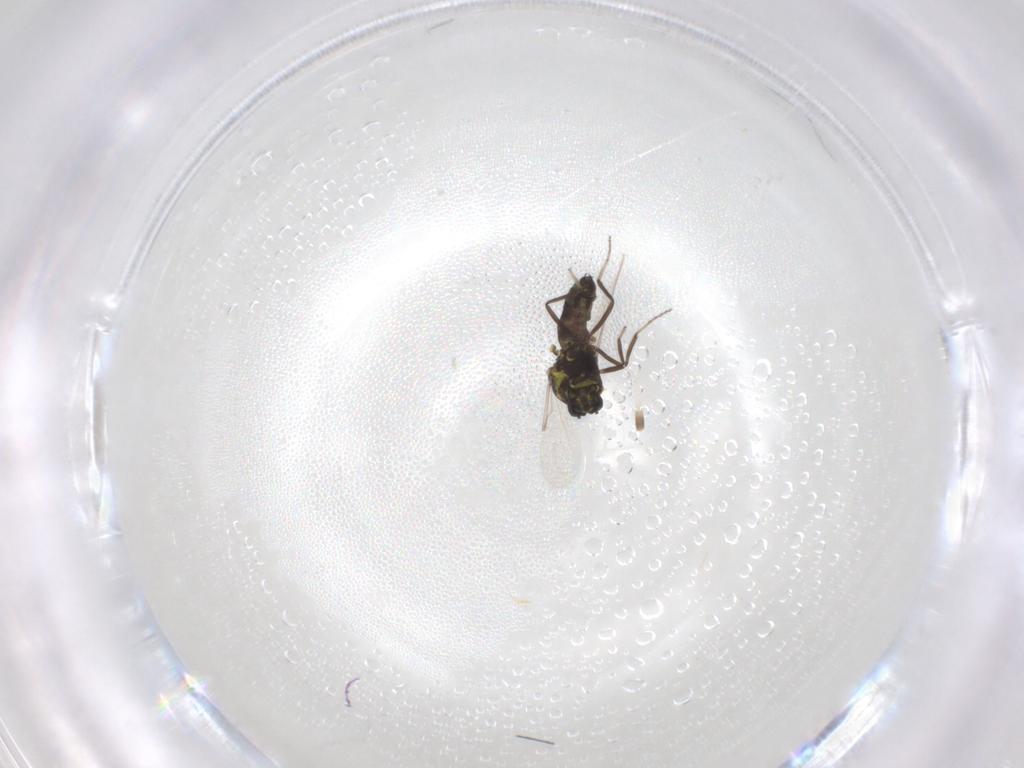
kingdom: Animalia
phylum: Arthropoda
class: Insecta
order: Diptera
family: Ceratopogonidae
